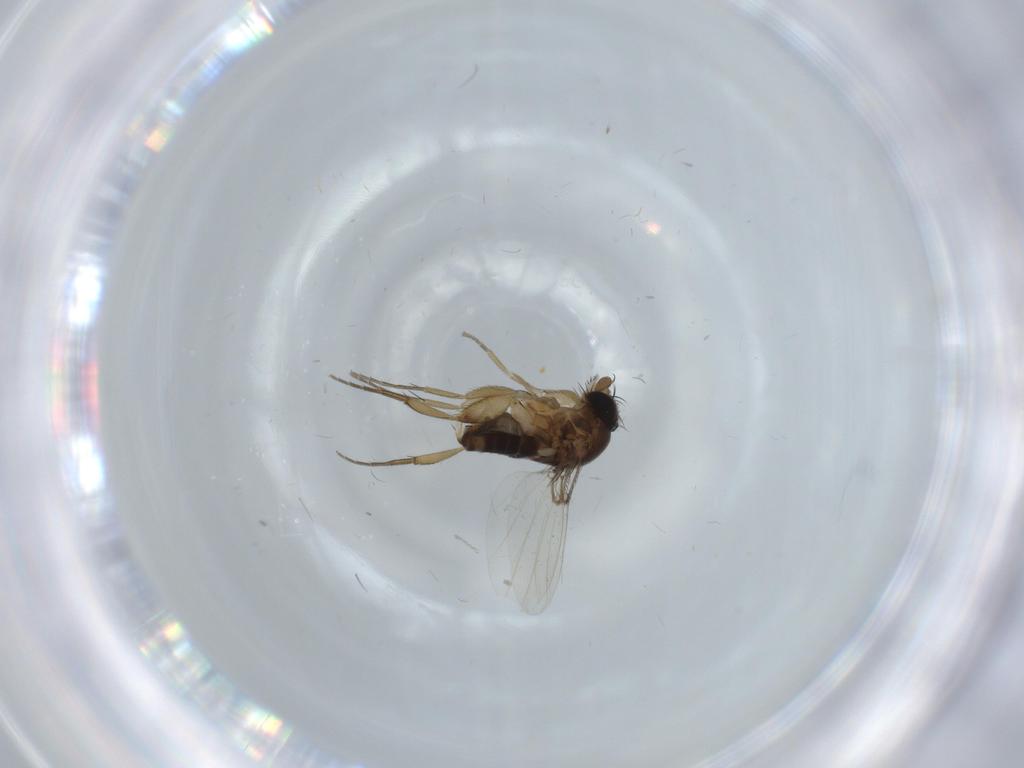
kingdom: Animalia
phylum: Arthropoda
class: Insecta
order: Diptera
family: Phoridae
